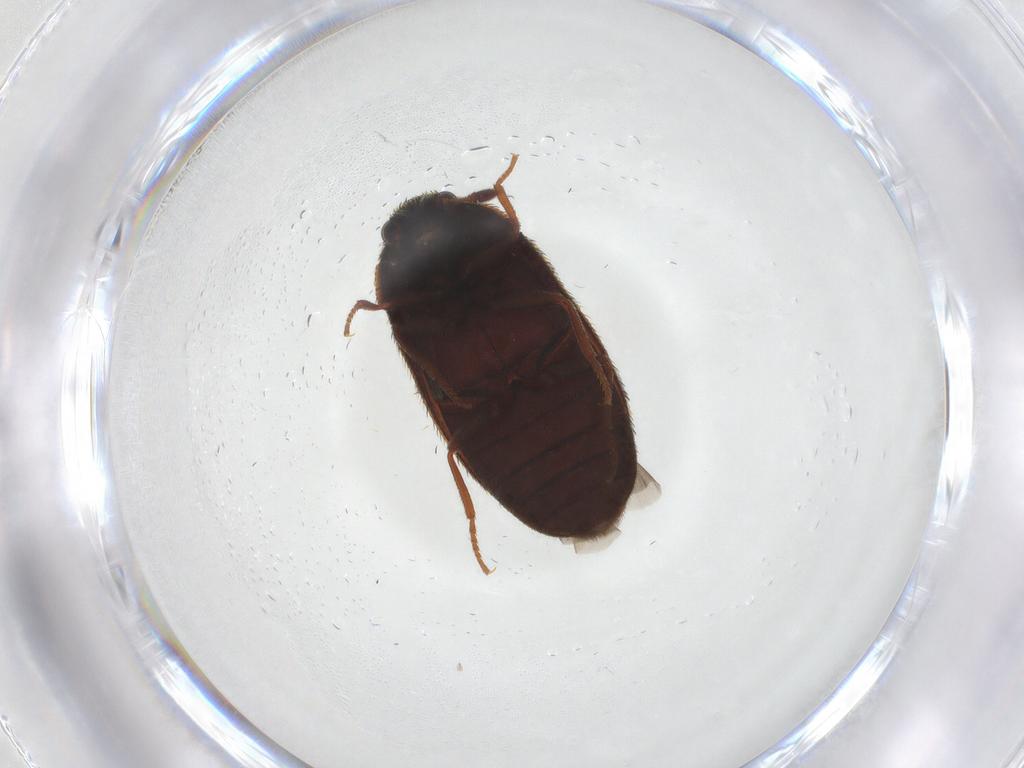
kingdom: Animalia
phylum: Arthropoda
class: Insecta
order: Coleoptera
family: Dermestidae
